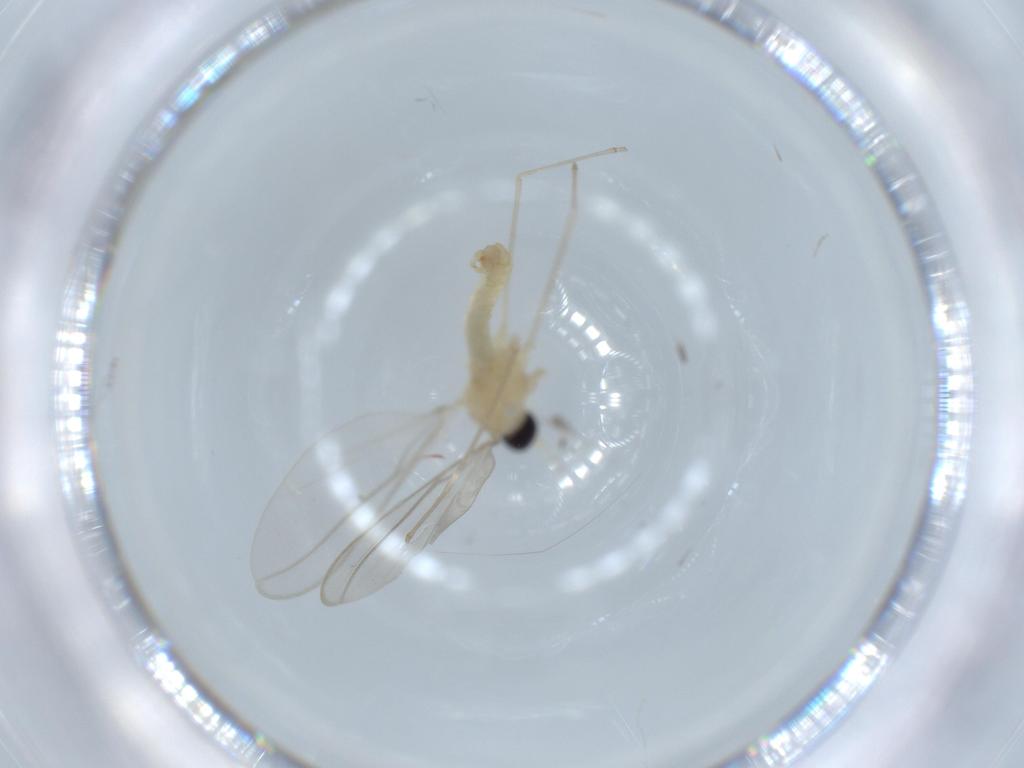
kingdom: Animalia
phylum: Arthropoda
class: Insecta
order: Diptera
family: Cecidomyiidae
